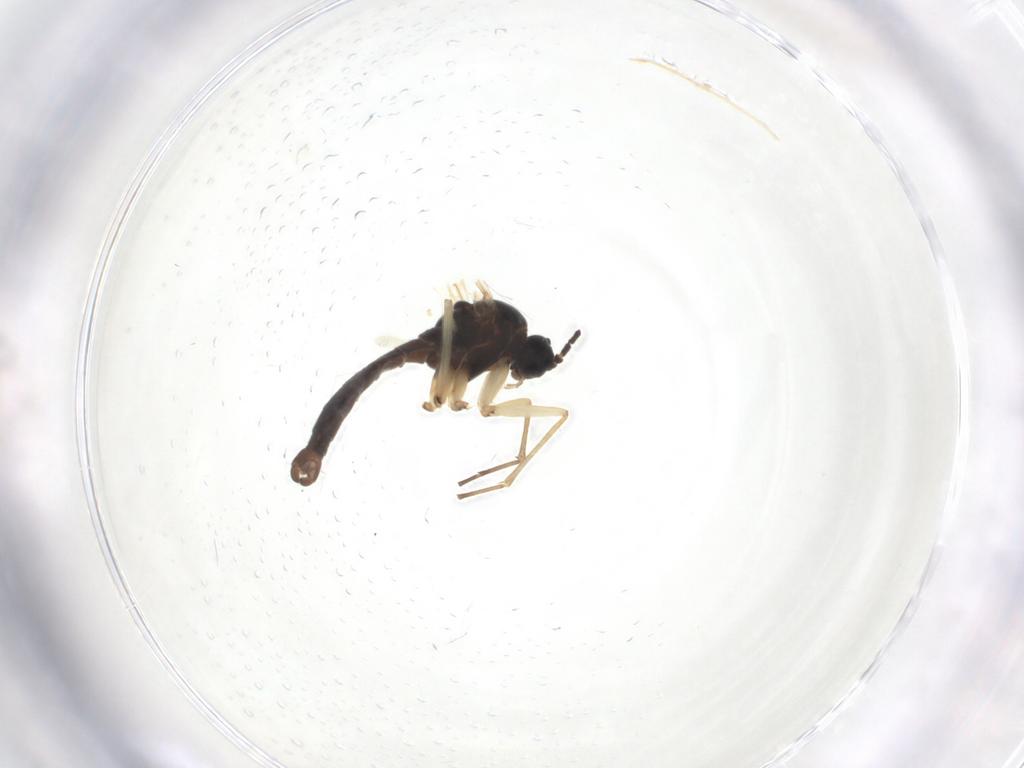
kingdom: Animalia
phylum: Arthropoda
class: Insecta
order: Diptera
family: Sciaridae
